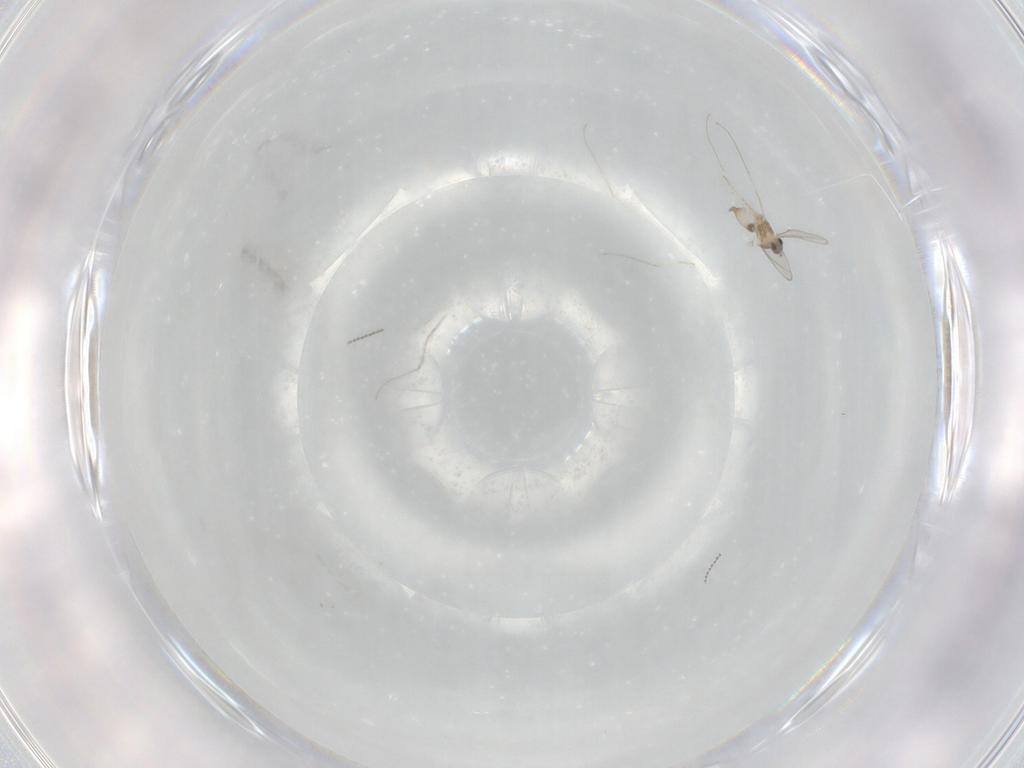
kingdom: Animalia
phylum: Arthropoda
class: Insecta
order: Diptera
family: Cecidomyiidae
